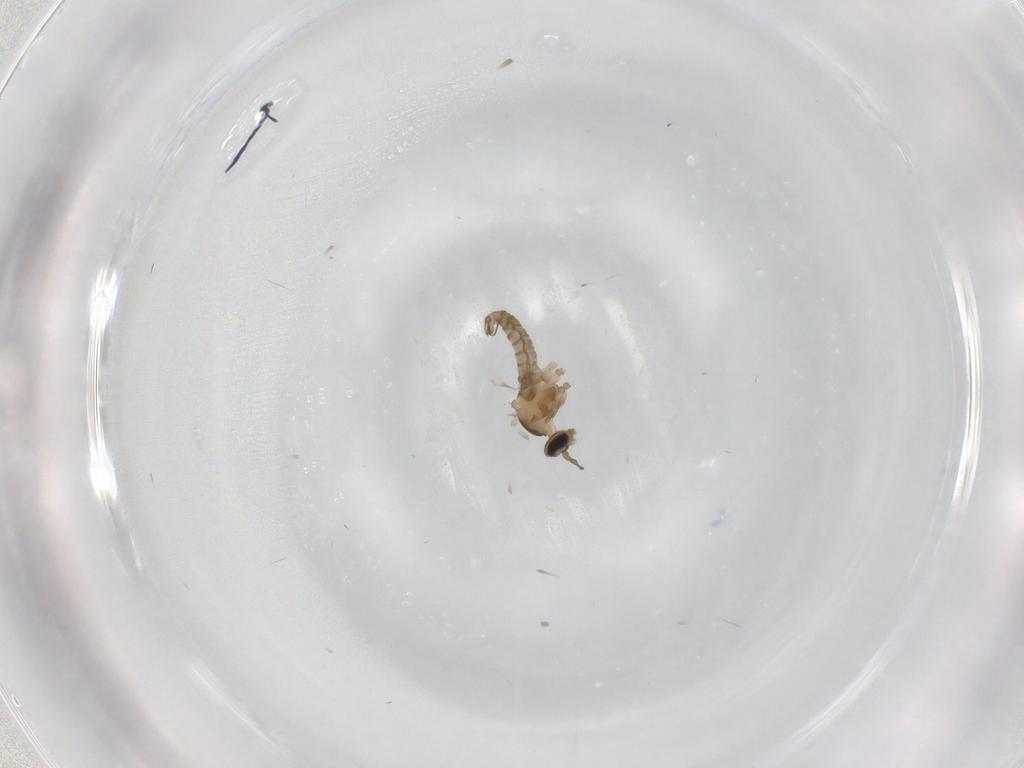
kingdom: Animalia
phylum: Arthropoda
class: Insecta
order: Diptera
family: Cecidomyiidae
